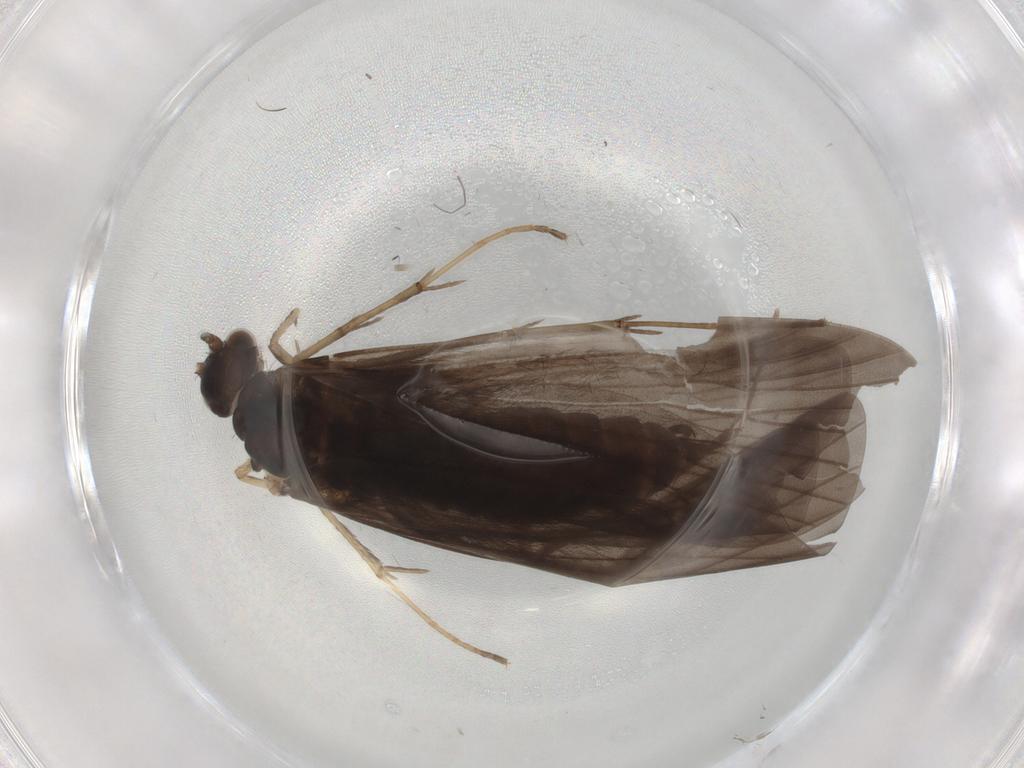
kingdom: Animalia
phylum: Arthropoda
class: Insecta
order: Trichoptera
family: Hydropsychidae
